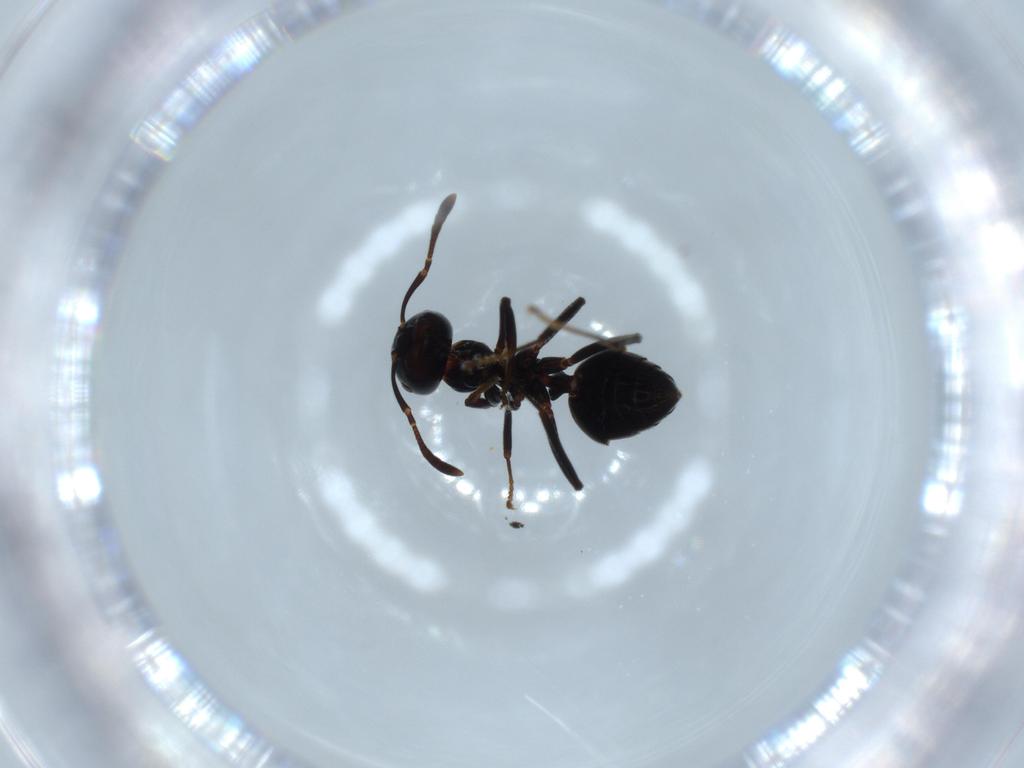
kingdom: Animalia
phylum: Arthropoda
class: Insecta
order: Hymenoptera
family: Formicidae
